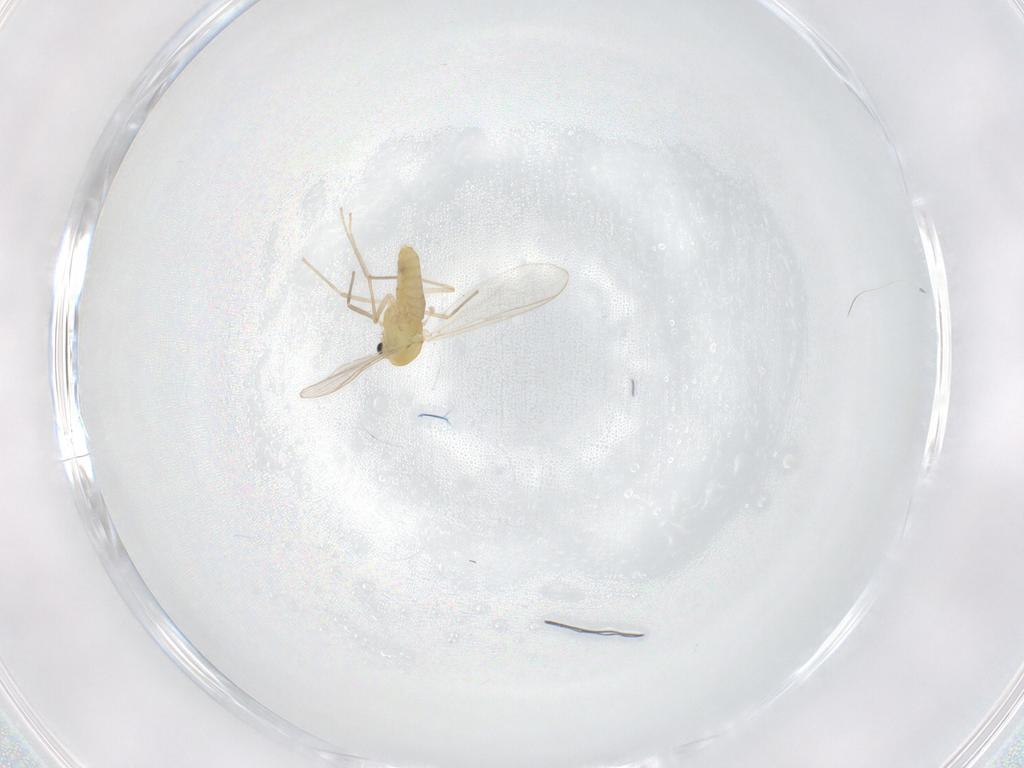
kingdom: Animalia
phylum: Arthropoda
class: Insecta
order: Diptera
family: Chironomidae
